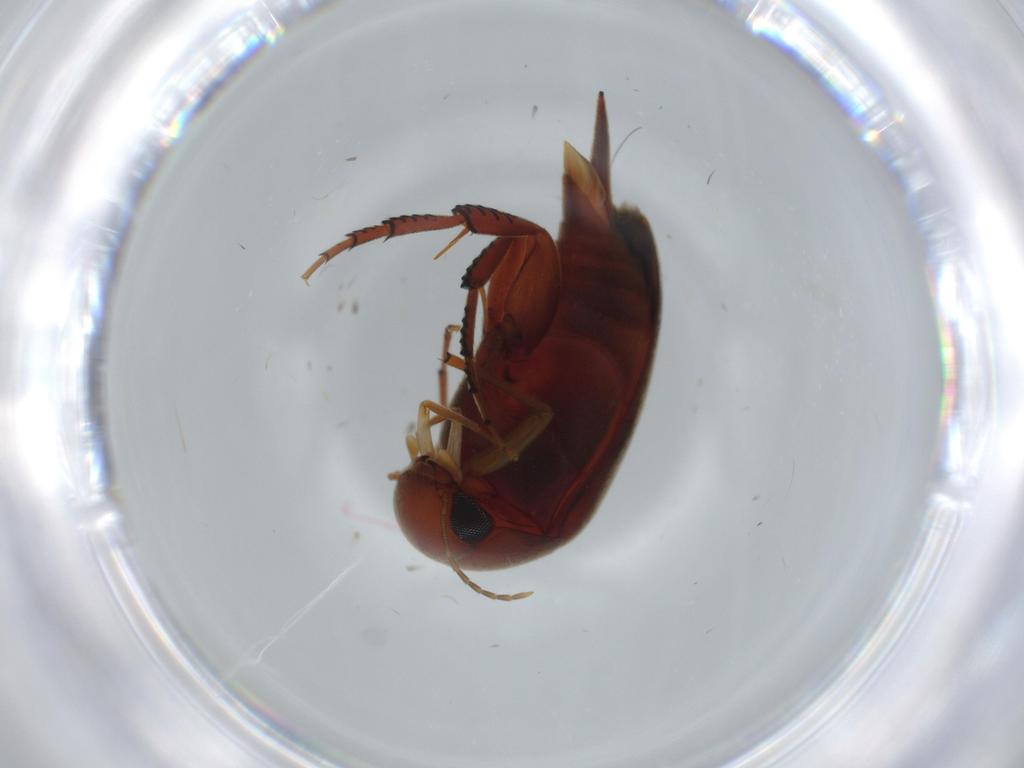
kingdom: Animalia
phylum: Arthropoda
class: Insecta
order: Coleoptera
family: Mordellidae
